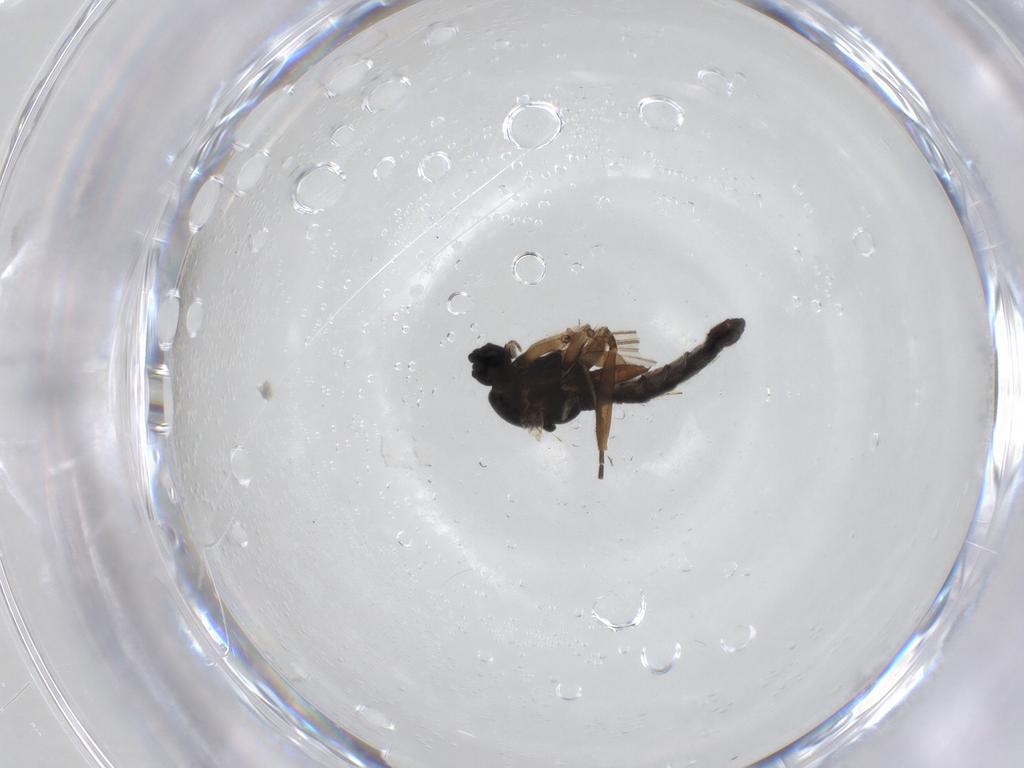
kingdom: Animalia
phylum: Arthropoda
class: Insecta
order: Diptera
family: Sciaridae
